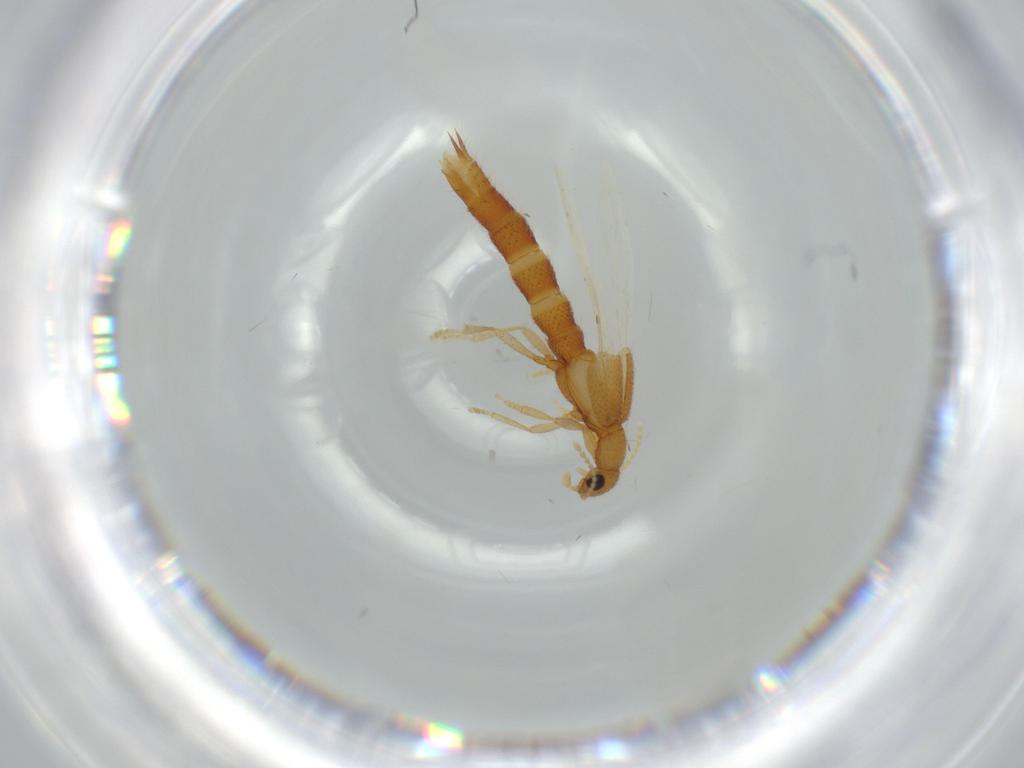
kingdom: Animalia
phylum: Arthropoda
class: Insecta
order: Coleoptera
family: Staphylinidae
